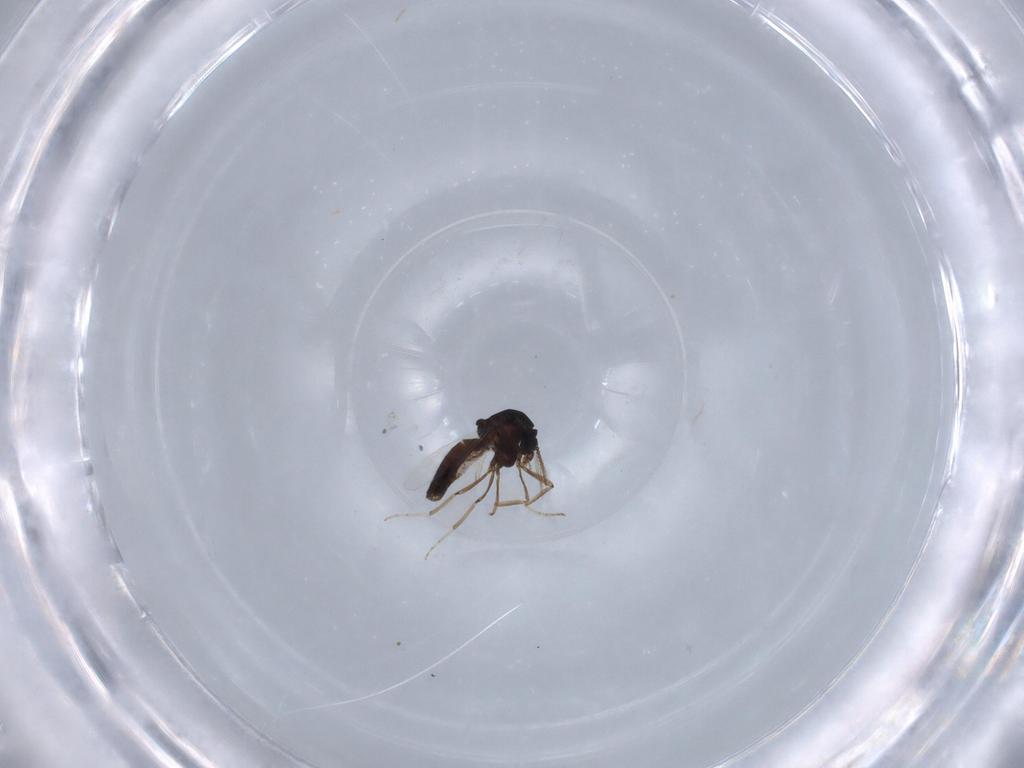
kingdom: Animalia
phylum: Arthropoda
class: Insecta
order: Diptera
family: Ceratopogonidae
